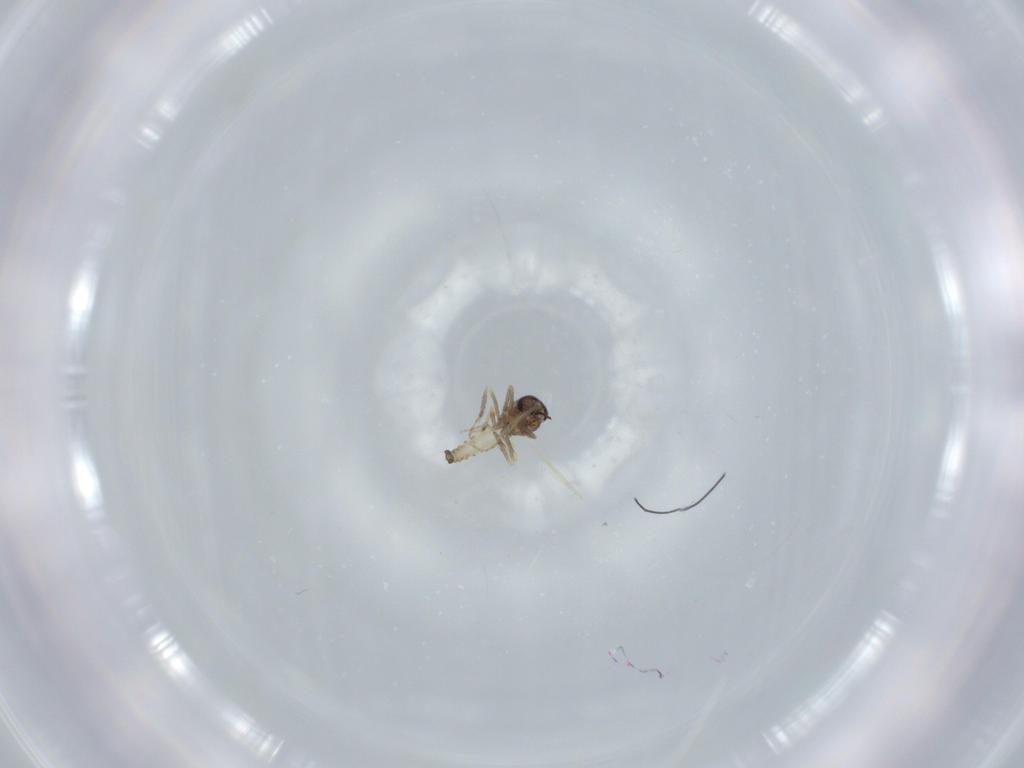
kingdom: Animalia
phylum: Arthropoda
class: Insecta
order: Diptera
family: Ceratopogonidae
